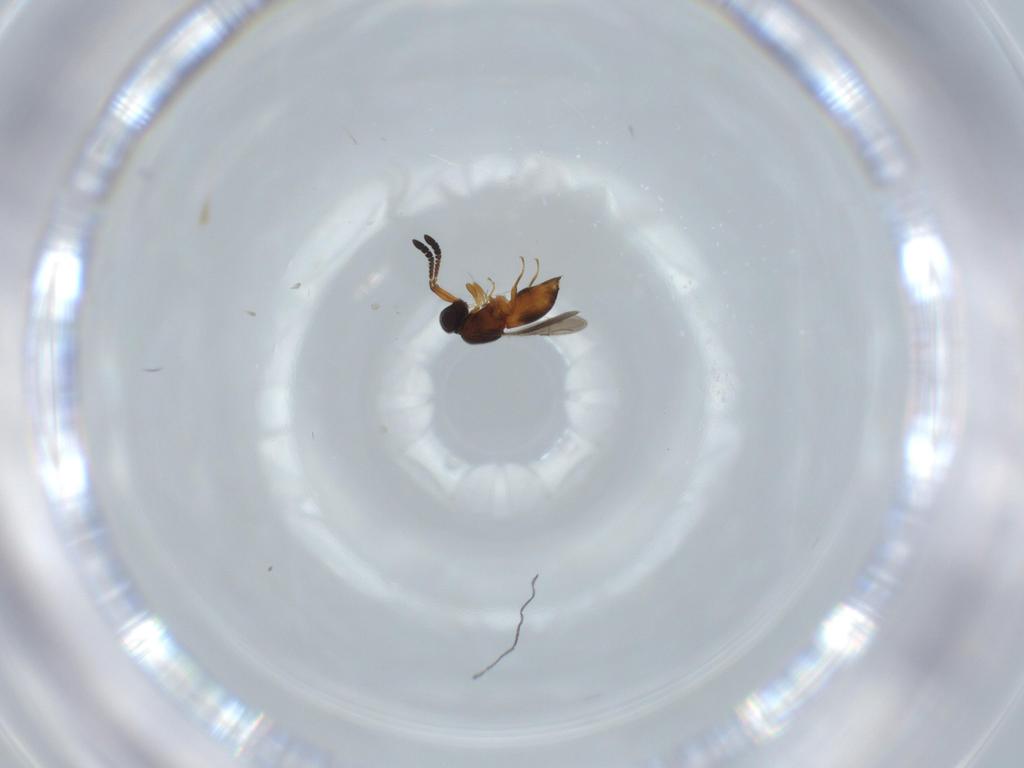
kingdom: Animalia
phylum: Arthropoda
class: Insecta
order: Hymenoptera
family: Ceraphronidae
